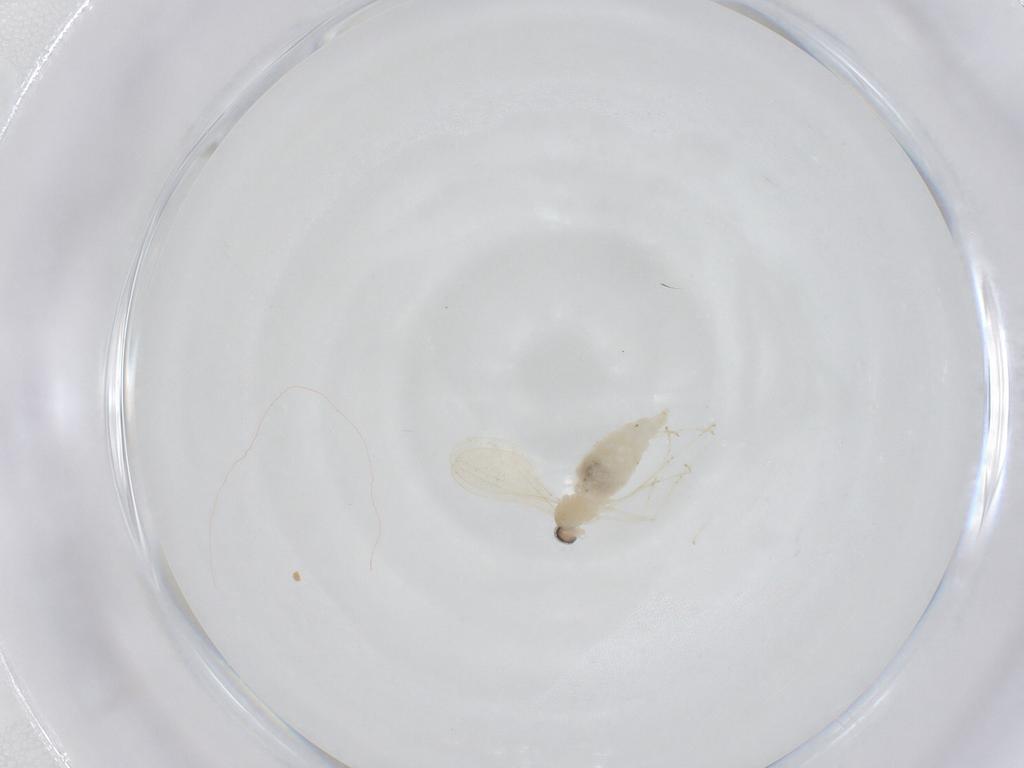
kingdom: Animalia
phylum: Arthropoda
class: Insecta
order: Diptera
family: Cecidomyiidae
